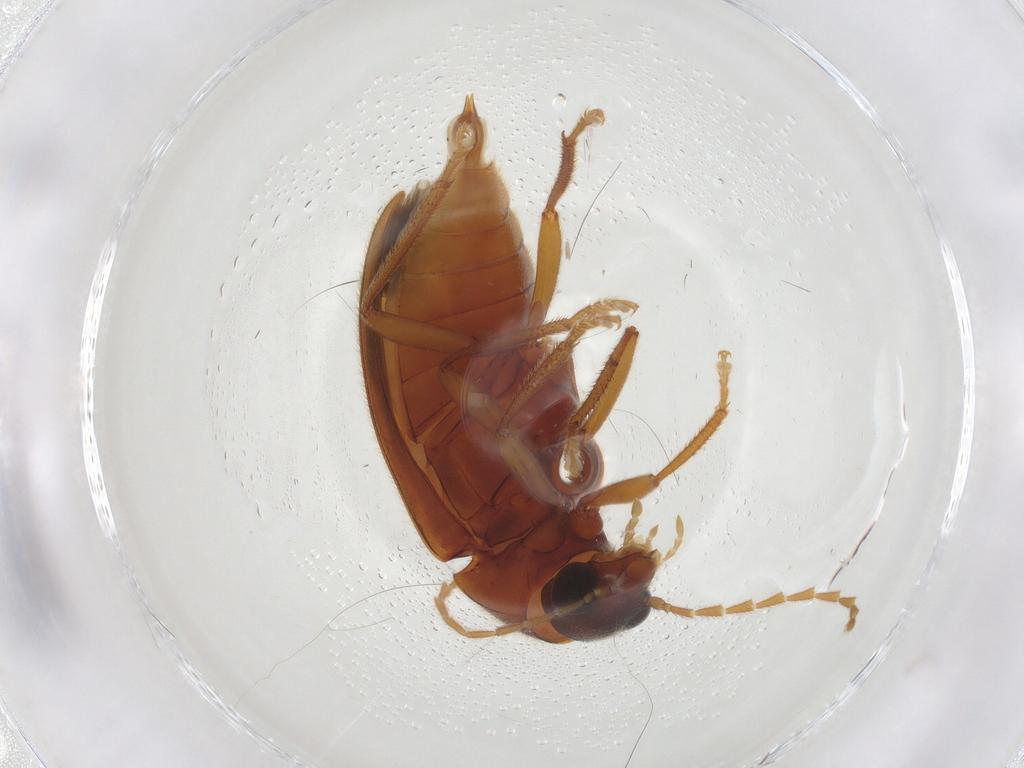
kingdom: Animalia
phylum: Arthropoda
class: Insecta
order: Coleoptera
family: Ptilodactylidae
